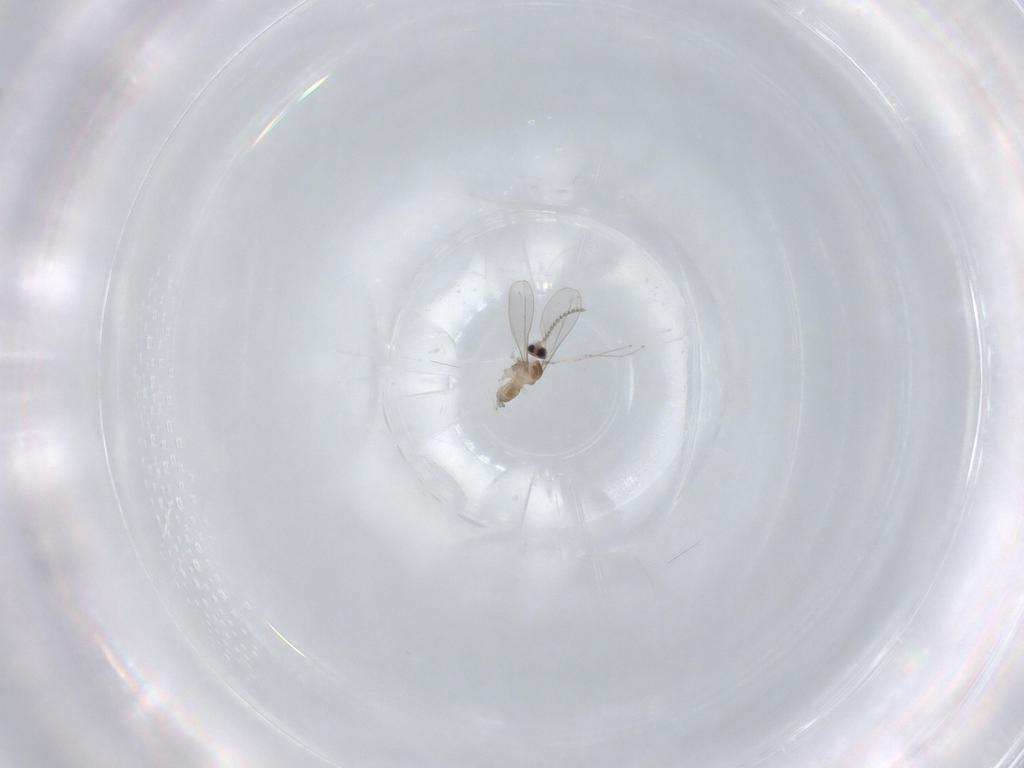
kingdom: Animalia
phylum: Arthropoda
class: Insecta
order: Diptera
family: Cecidomyiidae
